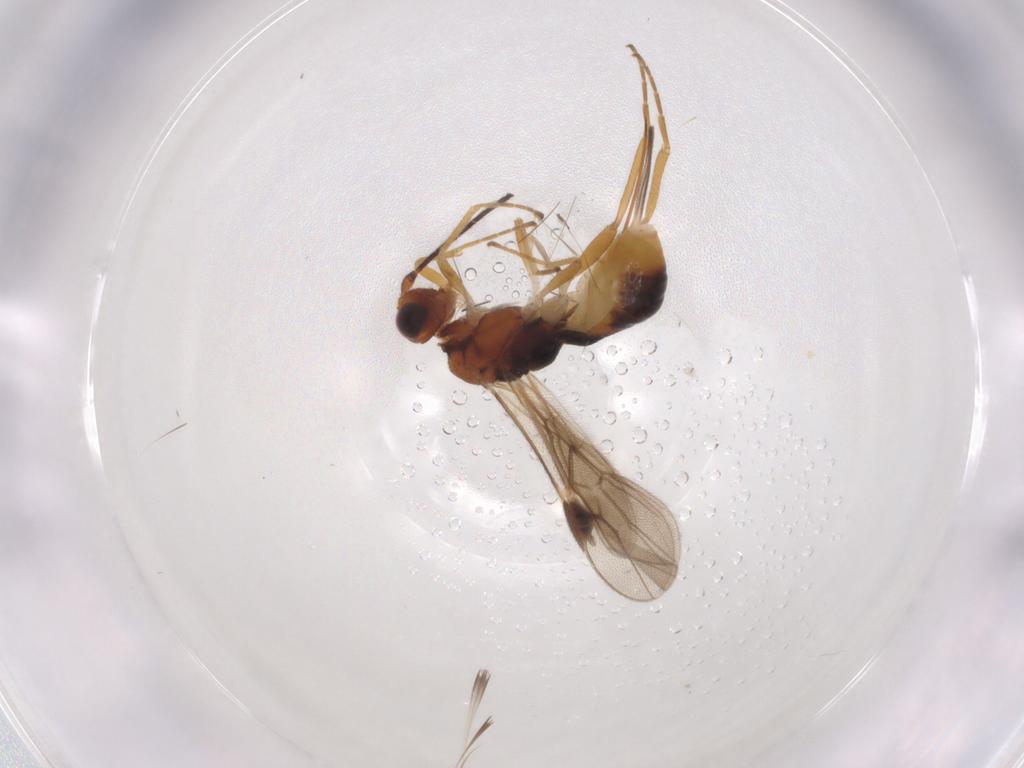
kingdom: Animalia
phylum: Arthropoda
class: Insecta
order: Hymenoptera
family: Braconidae
